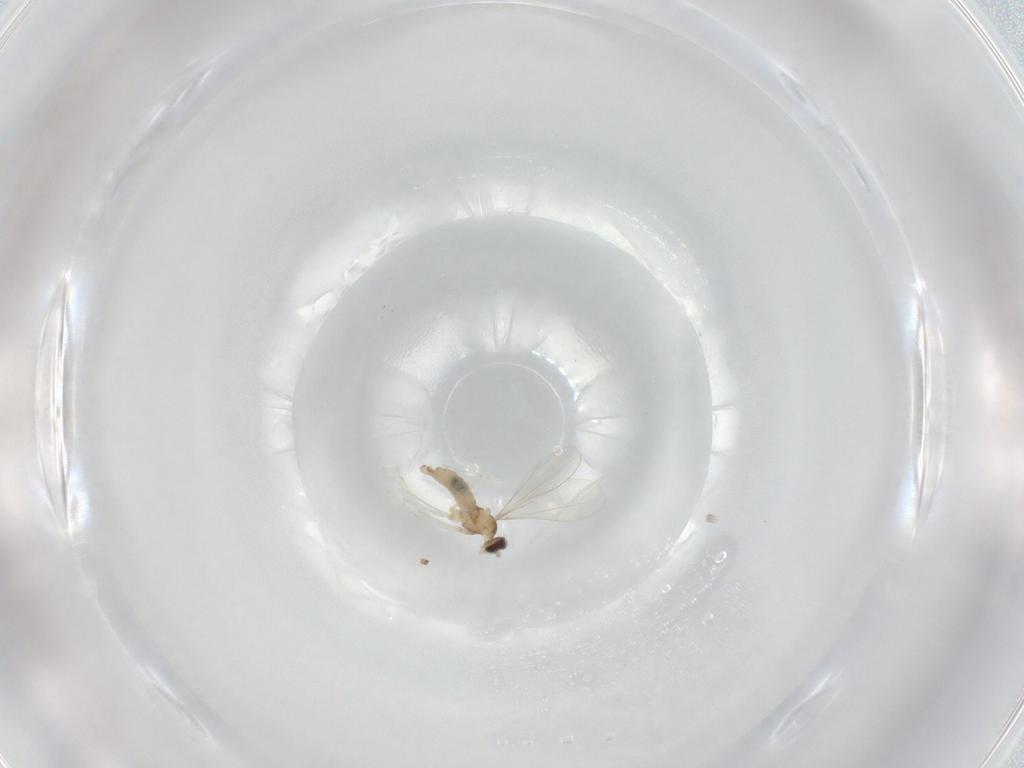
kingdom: Animalia
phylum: Arthropoda
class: Insecta
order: Diptera
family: Cecidomyiidae
